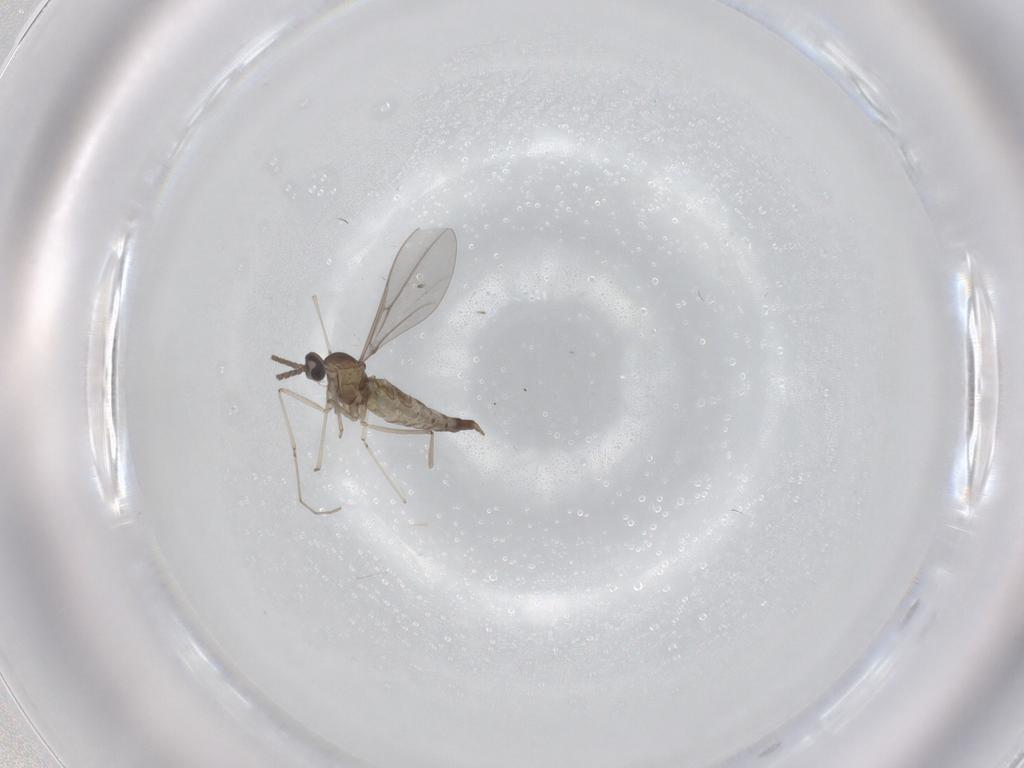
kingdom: Animalia
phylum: Arthropoda
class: Insecta
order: Diptera
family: Cecidomyiidae
